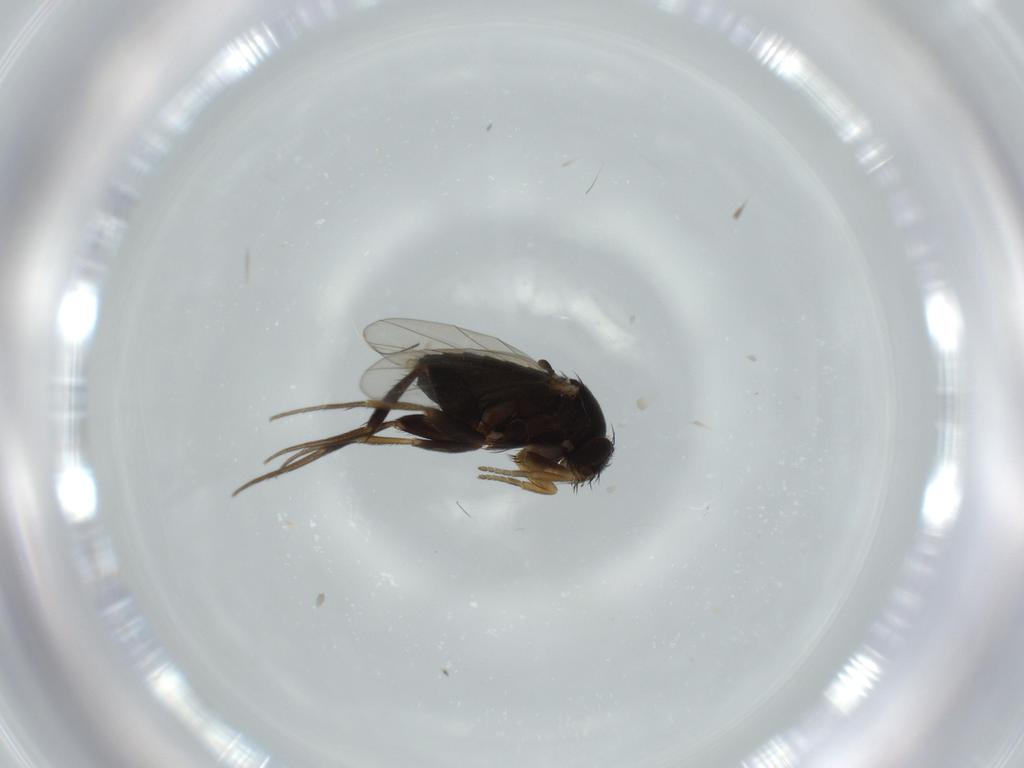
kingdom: Animalia
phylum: Arthropoda
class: Insecta
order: Diptera
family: Phoridae
